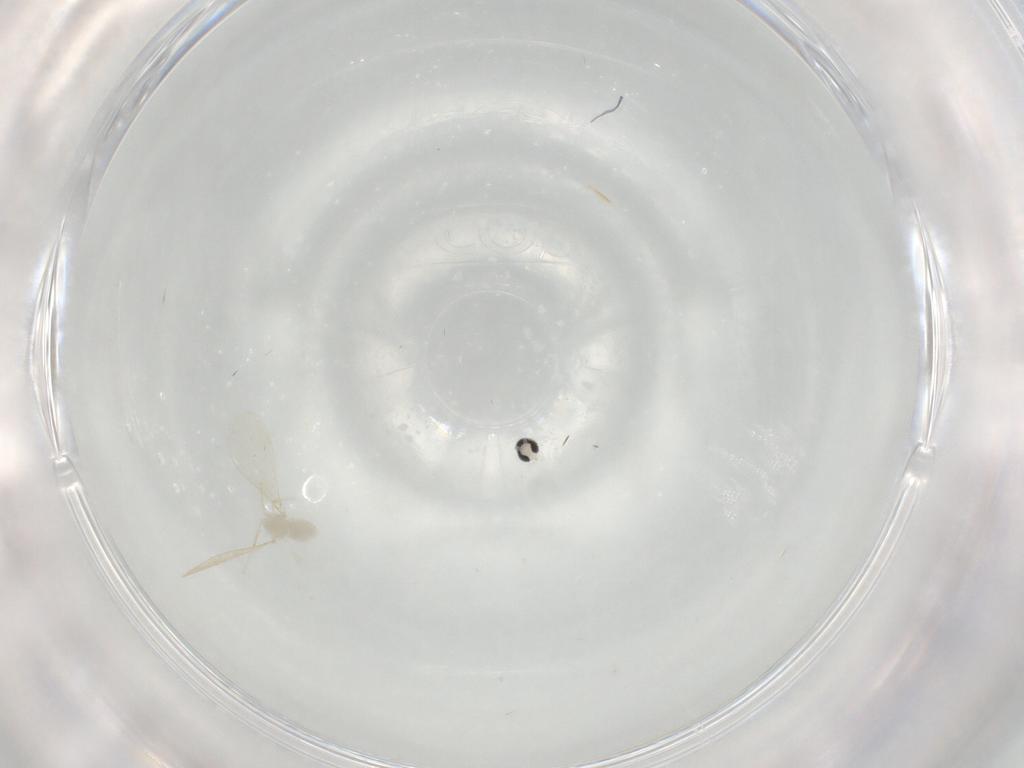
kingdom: Animalia
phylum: Arthropoda
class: Insecta
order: Diptera
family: Cecidomyiidae
